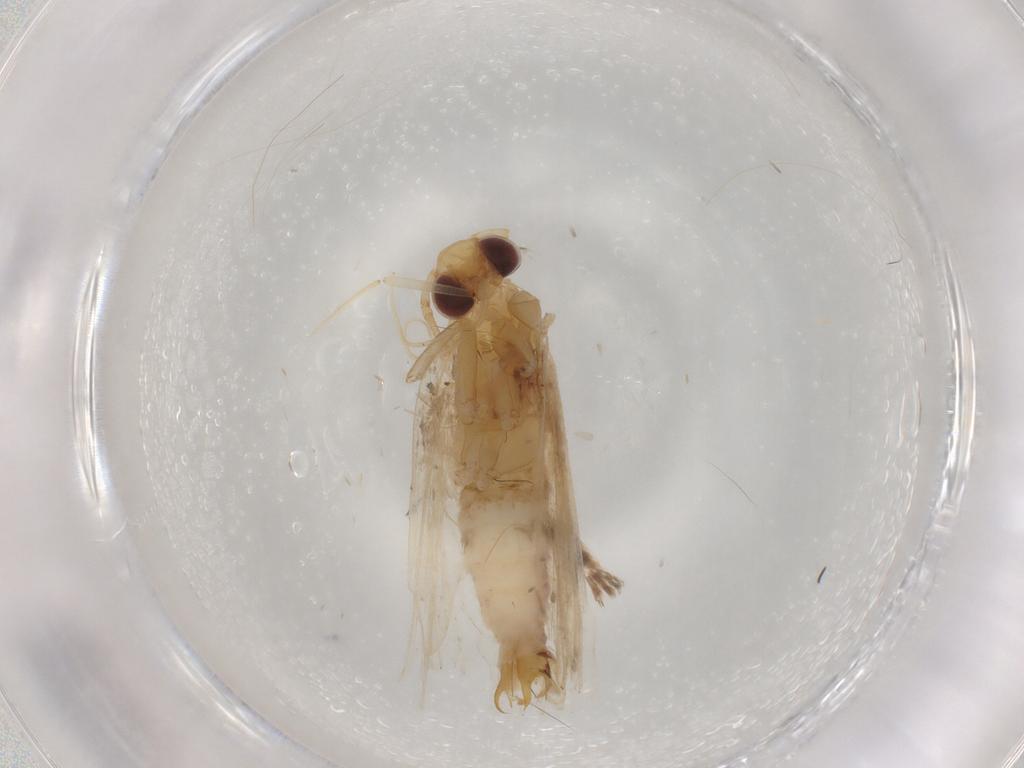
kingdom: Animalia
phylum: Arthropoda
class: Insecta
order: Lepidoptera
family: Depressariidae
